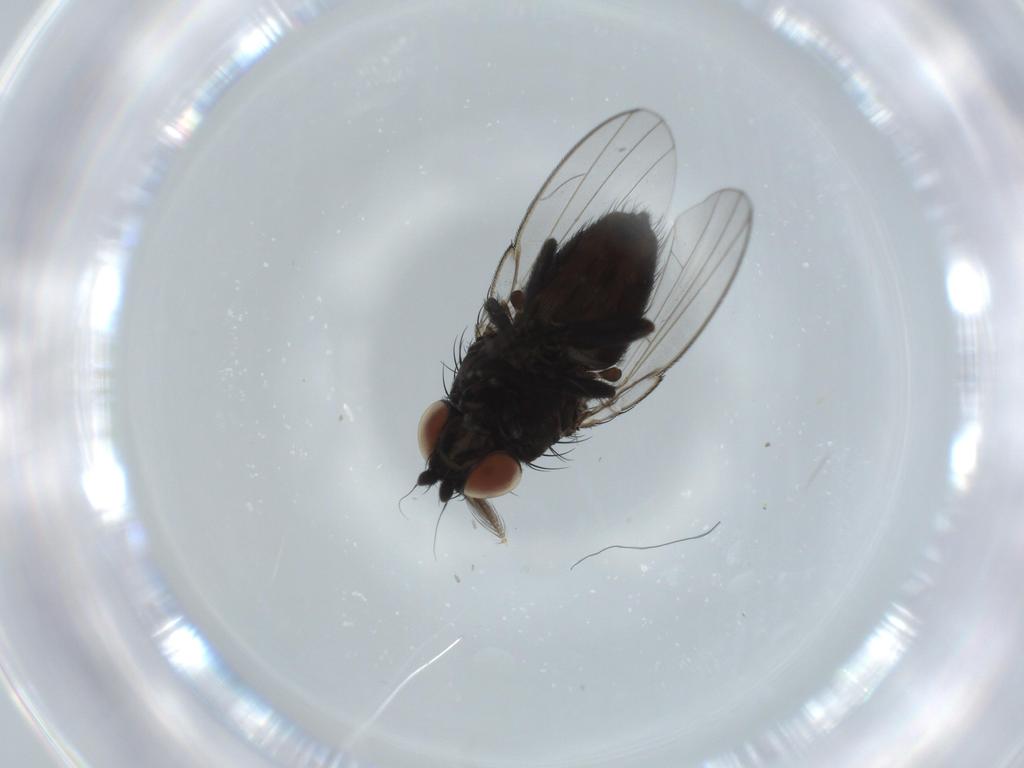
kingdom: Animalia
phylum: Arthropoda
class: Insecta
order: Diptera
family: Milichiidae
